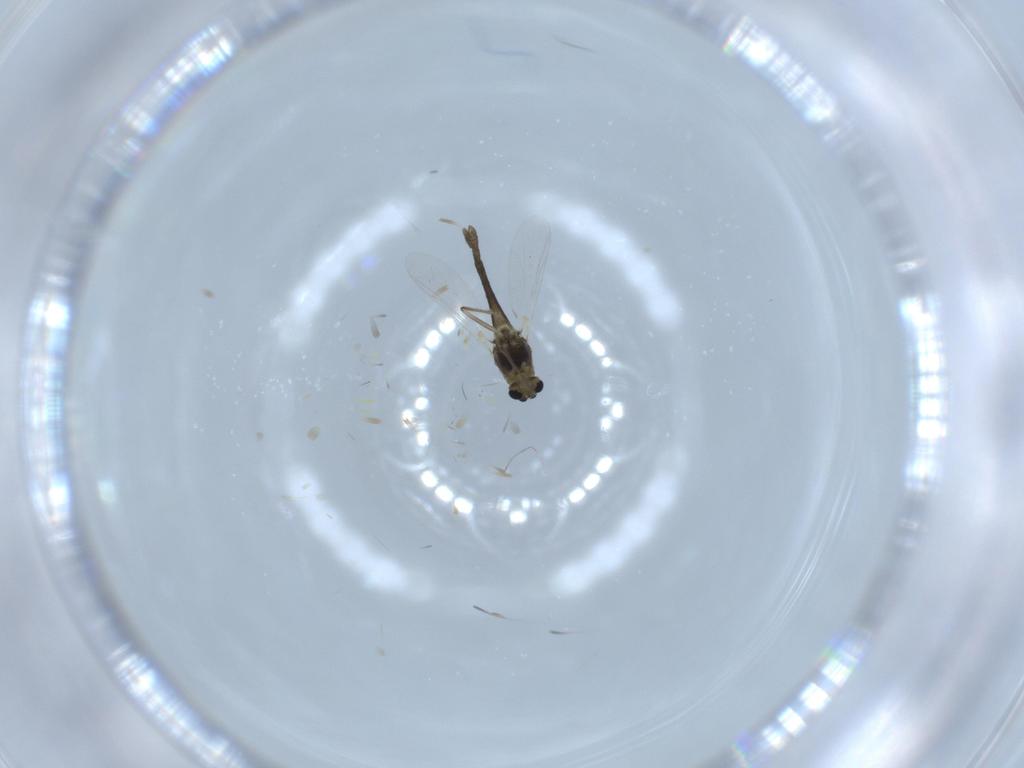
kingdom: Animalia
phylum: Arthropoda
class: Insecta
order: Diptera
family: Chironomidae
